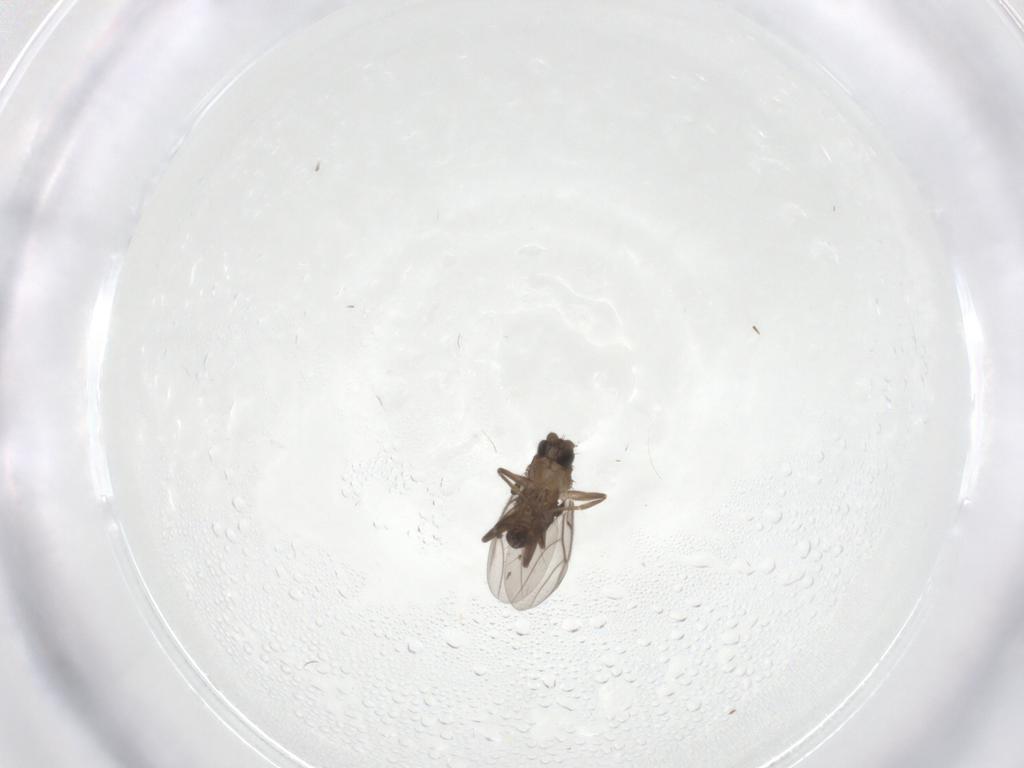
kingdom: Animalia
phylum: Arthropoda
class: Insecta
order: Diptera
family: Phoridae
